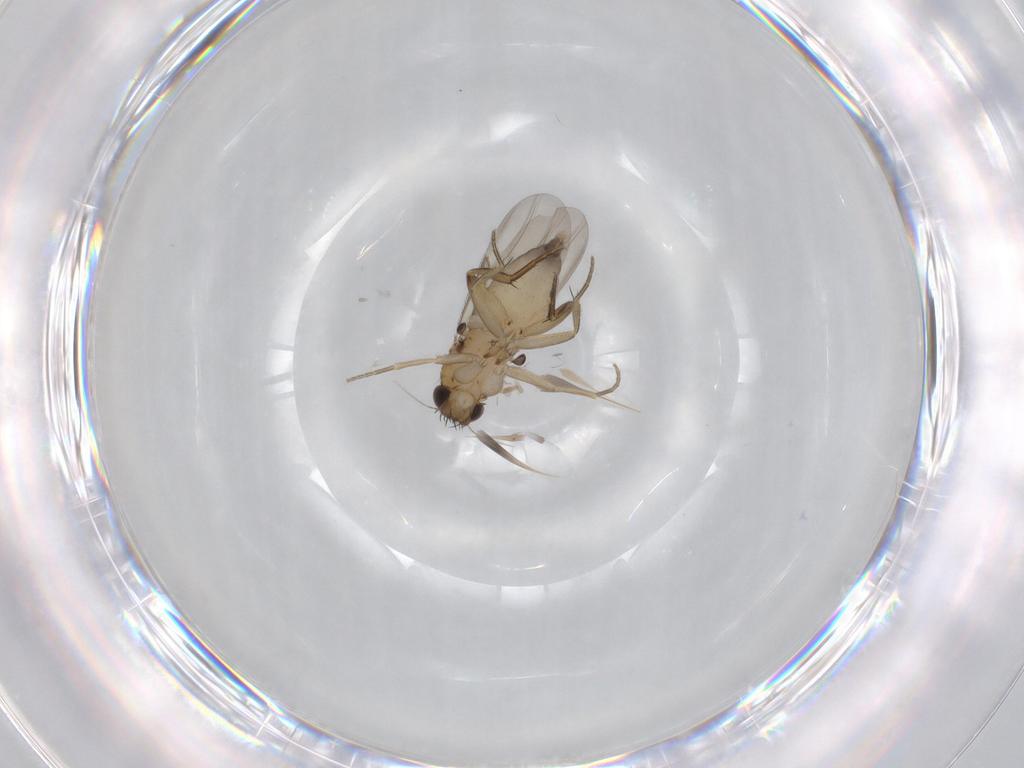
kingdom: Animalia
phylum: Arthropoda
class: Insecta
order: Diptera
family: Phoridae
